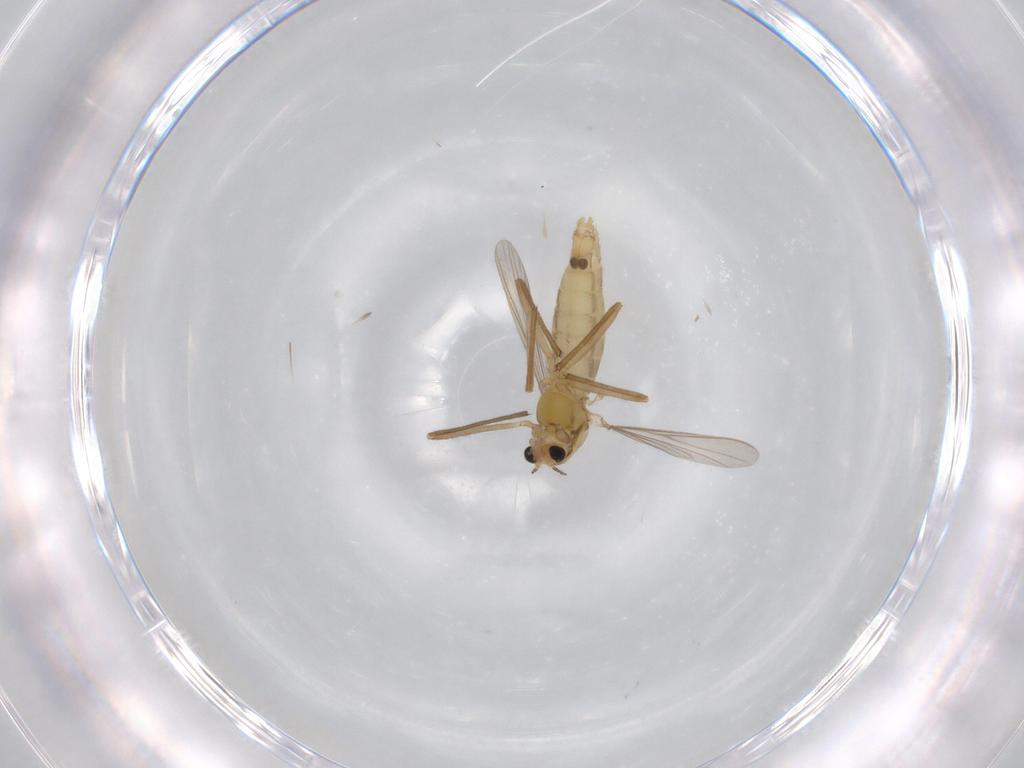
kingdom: Animalia
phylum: Arthropoda
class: Insecta
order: Diptera
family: Chironomidae
